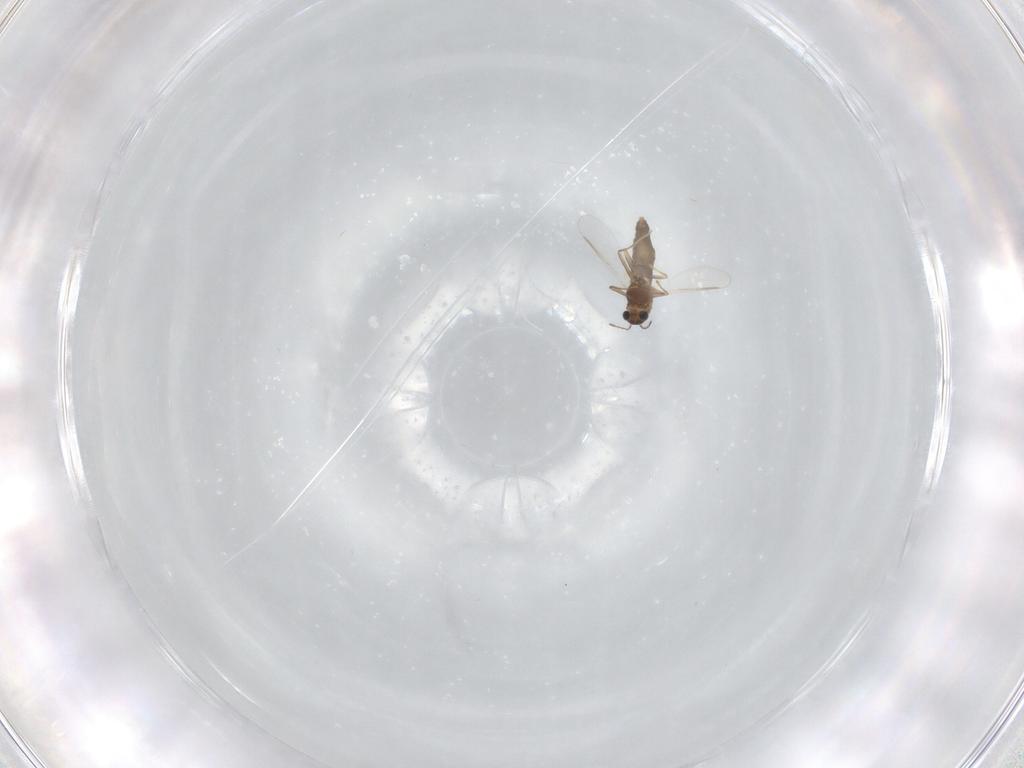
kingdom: Animalia
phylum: Arthropoda
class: Insecta
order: Diptera
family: Chironomidae
